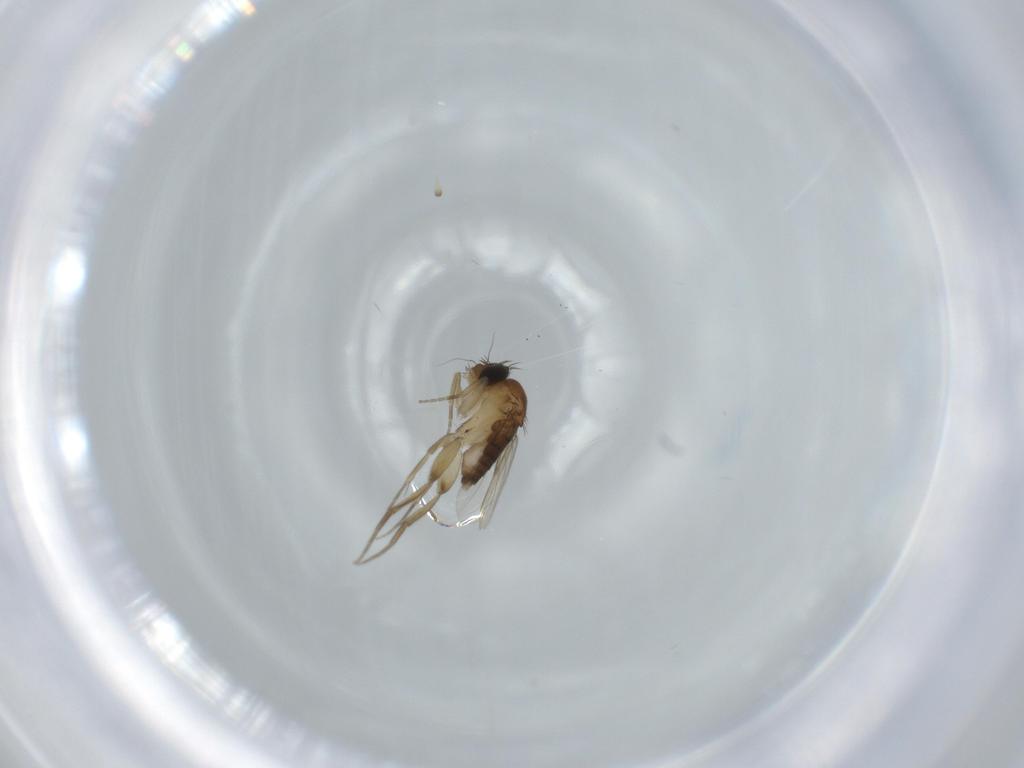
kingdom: Animalia
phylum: Arthropoda
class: Insecta
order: Diptera
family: Phoridae
